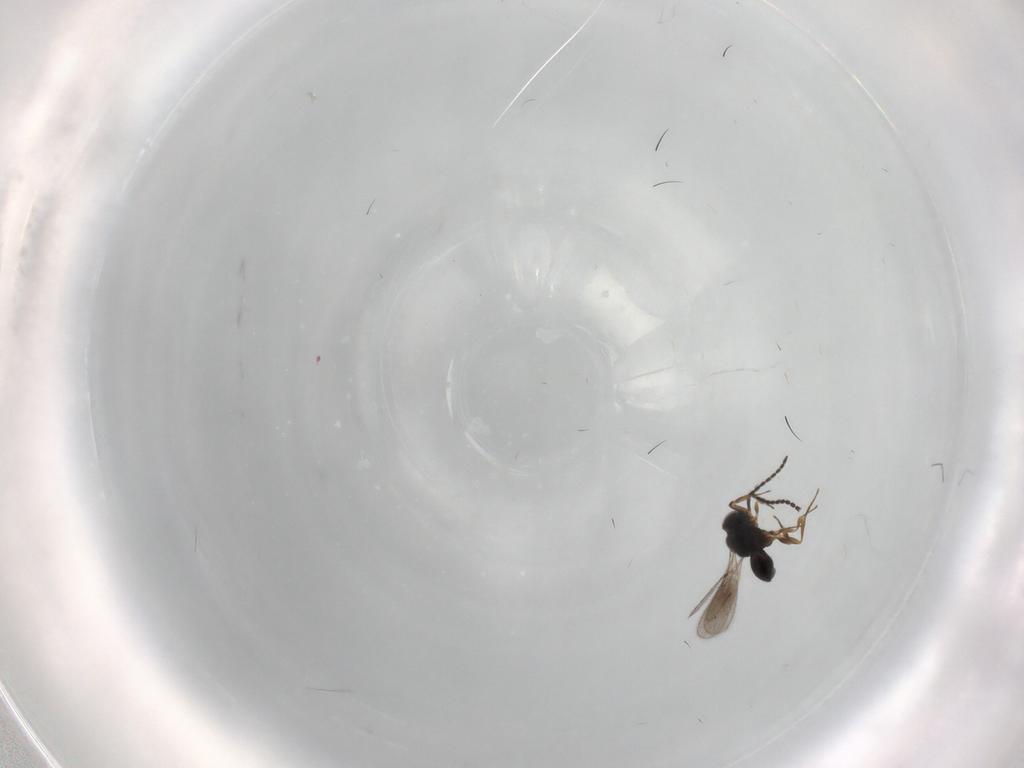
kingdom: Animalia
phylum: Arthropoda
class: Insecta
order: Hymenoptera
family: Scelionidae
